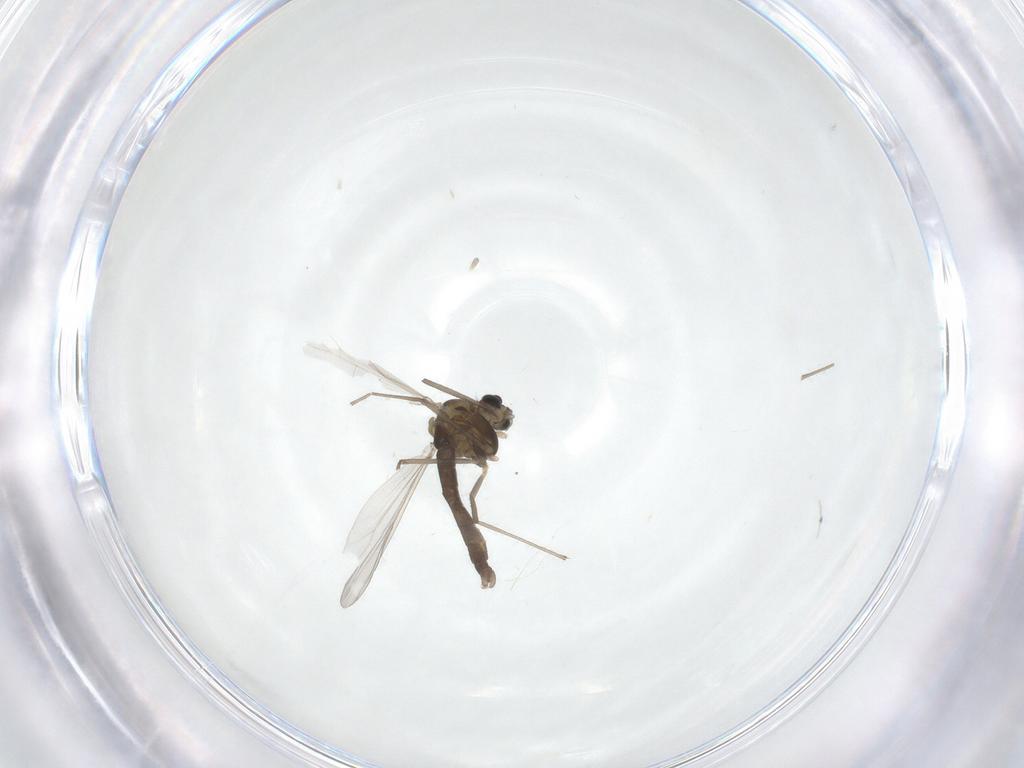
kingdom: Animalia
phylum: Arthropoda
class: Insecta
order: Diptera
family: Chironomidae
